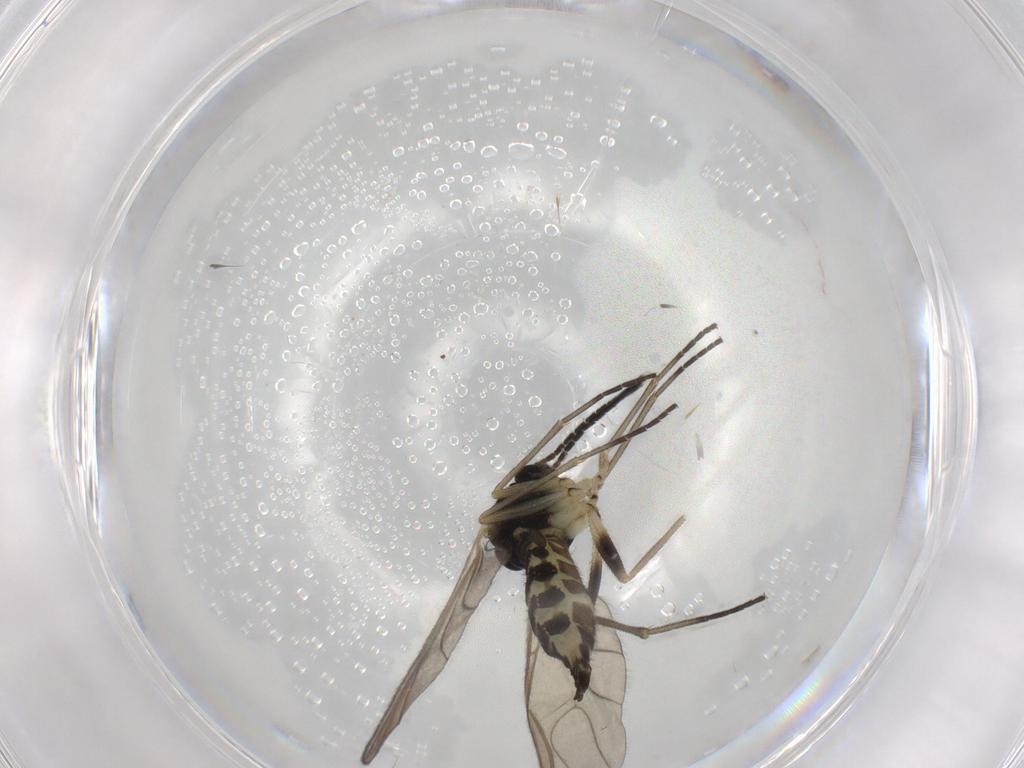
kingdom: Animalia
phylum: Arthropoda
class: Insecta
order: Diptera
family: Sciaridae
